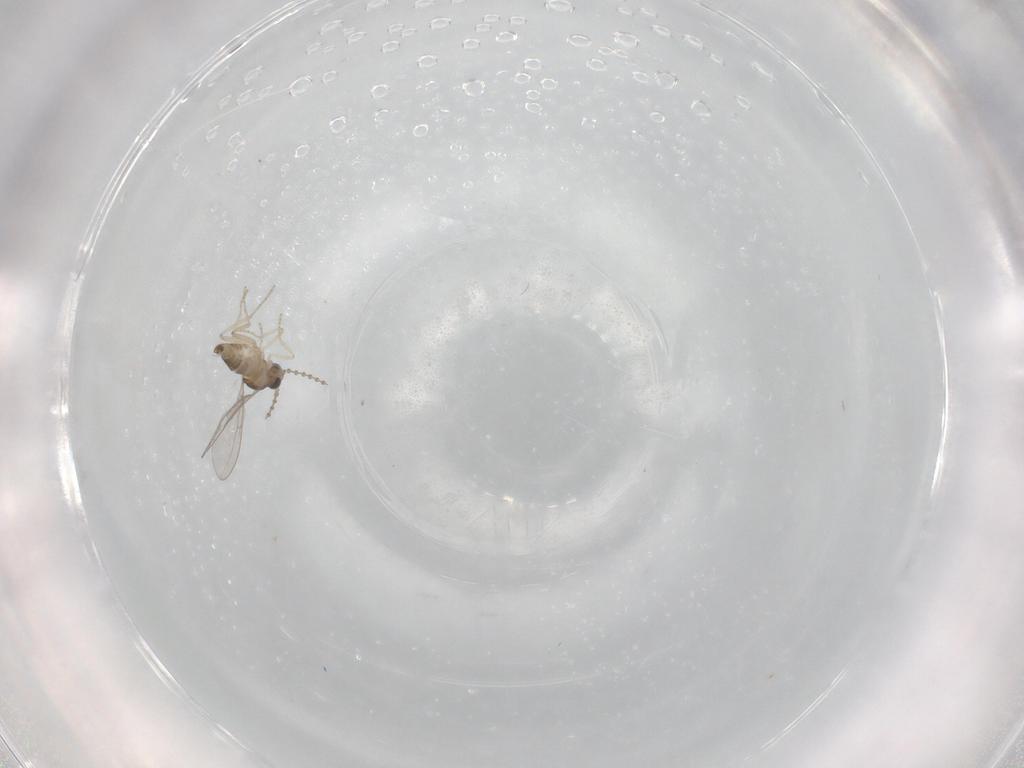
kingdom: Animalia
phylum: Arthropoda
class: Insecta
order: Diptera
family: Cecidomyiidae
